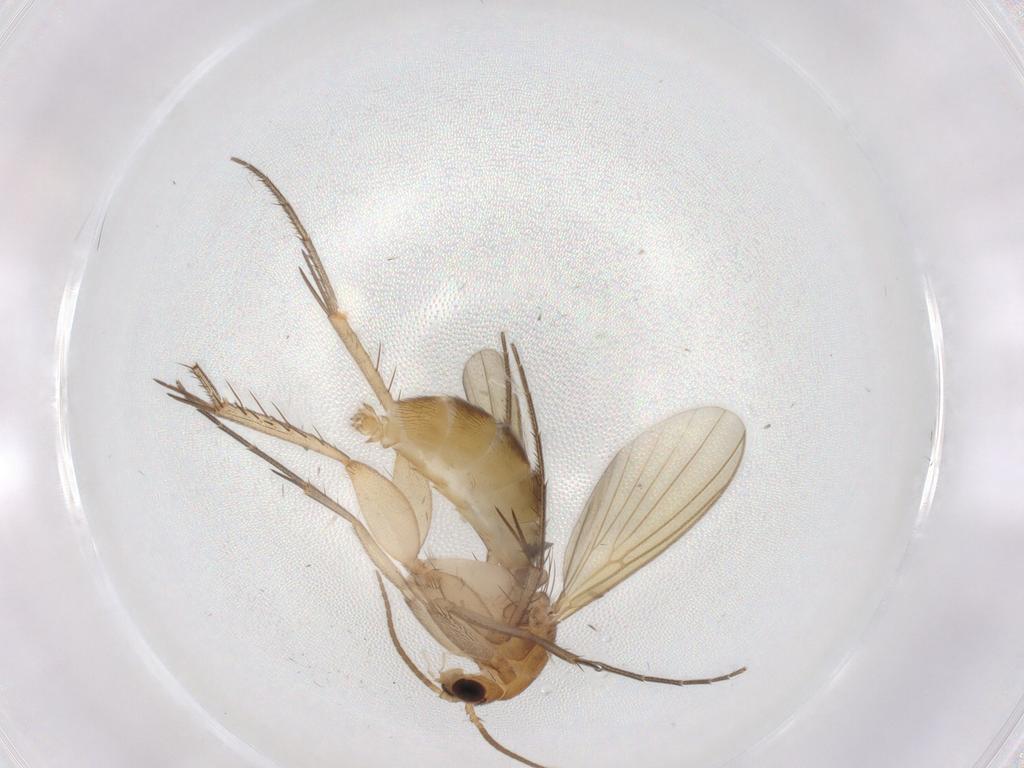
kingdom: Animalia
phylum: Arthropoda
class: Insecta
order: Diptera
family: Mycetophilidae
